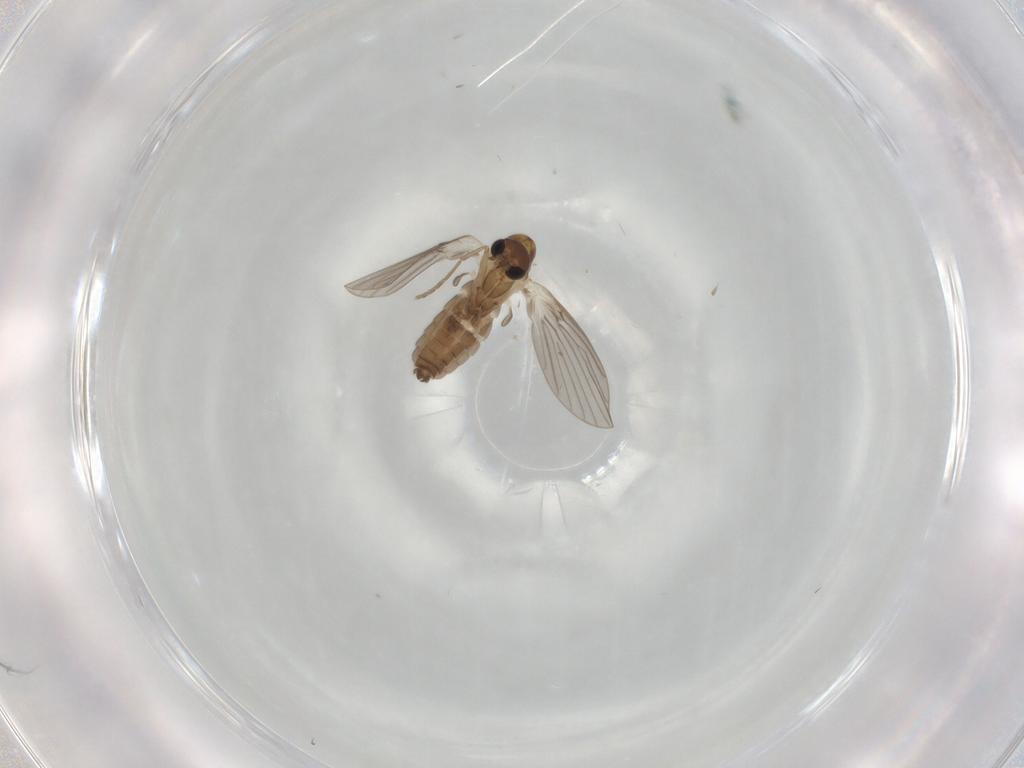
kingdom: Animalia
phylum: Arthropoda
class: Insecta
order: Diptera
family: Psychodidae
